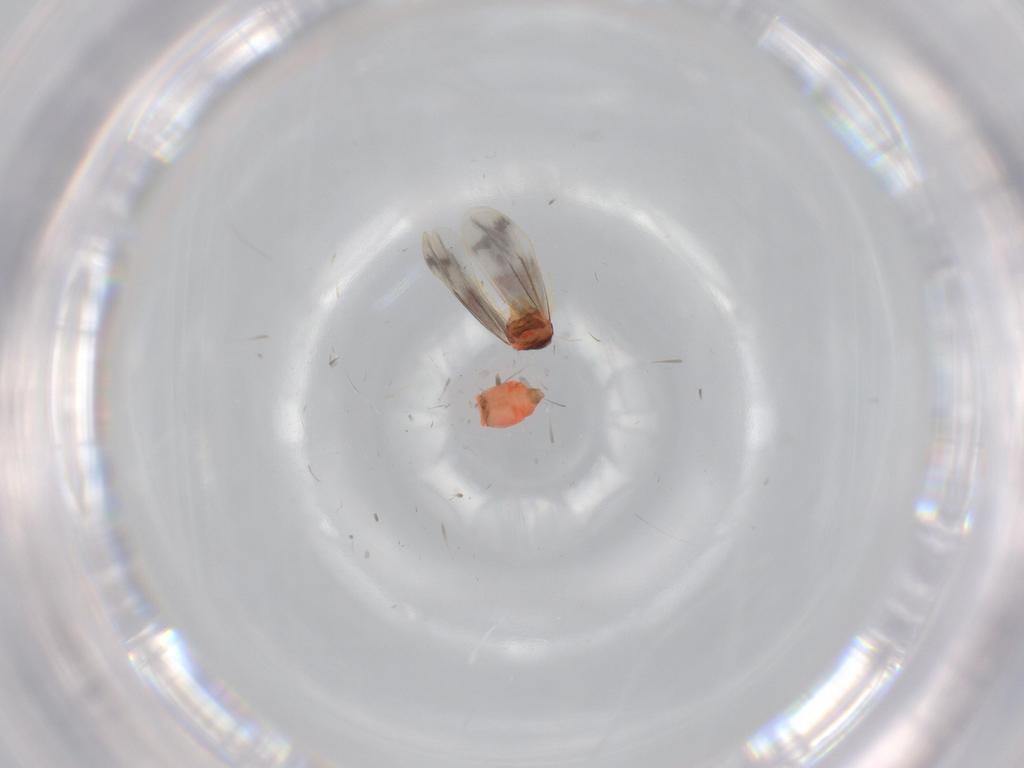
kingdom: Animalia
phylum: Arthropoda
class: Insecta
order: Hemiptera
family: Aleyrodidae
